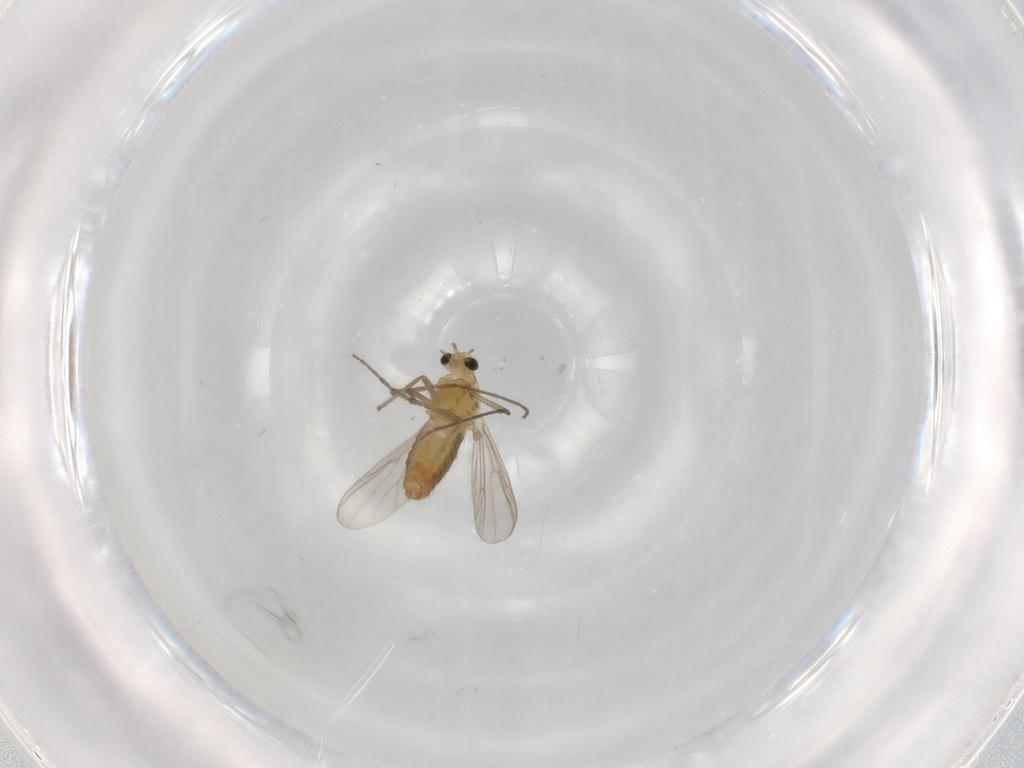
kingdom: Animalia
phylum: Arthropoda
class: Insecta
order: Diptera
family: Chironomidae
